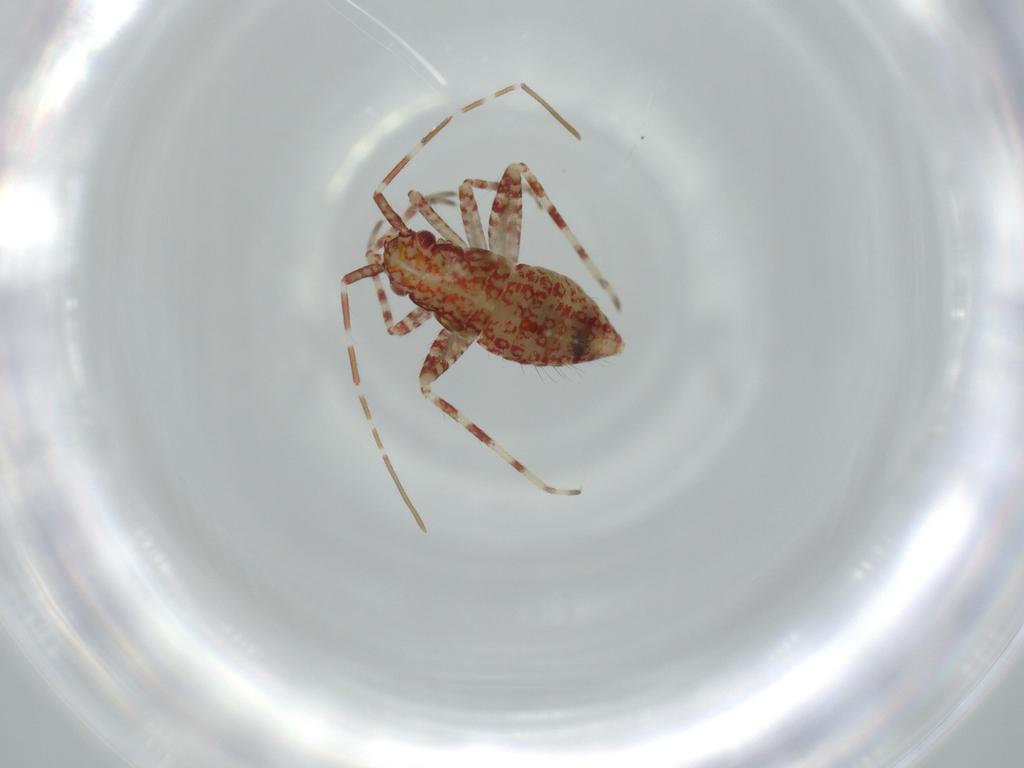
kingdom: Animalia
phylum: Arthropoda
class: Insecta
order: Hemiptera
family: Miridae
